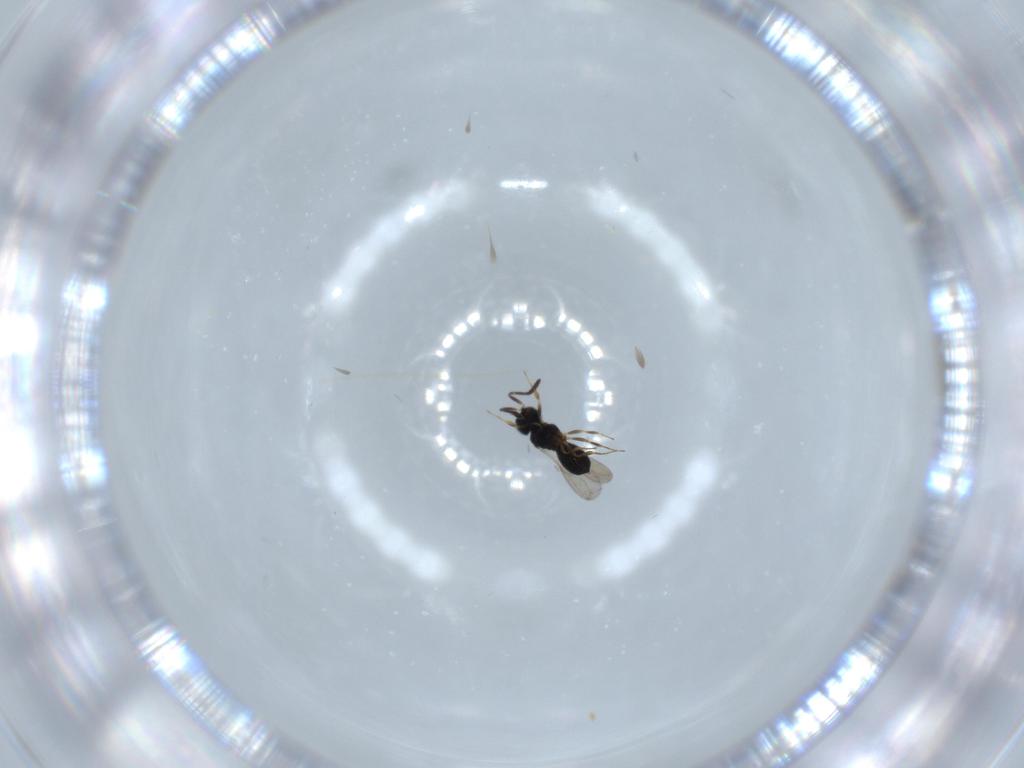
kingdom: Animalia
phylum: Arthropoda
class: Insecta
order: Hymenoptera
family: Scelionidae
